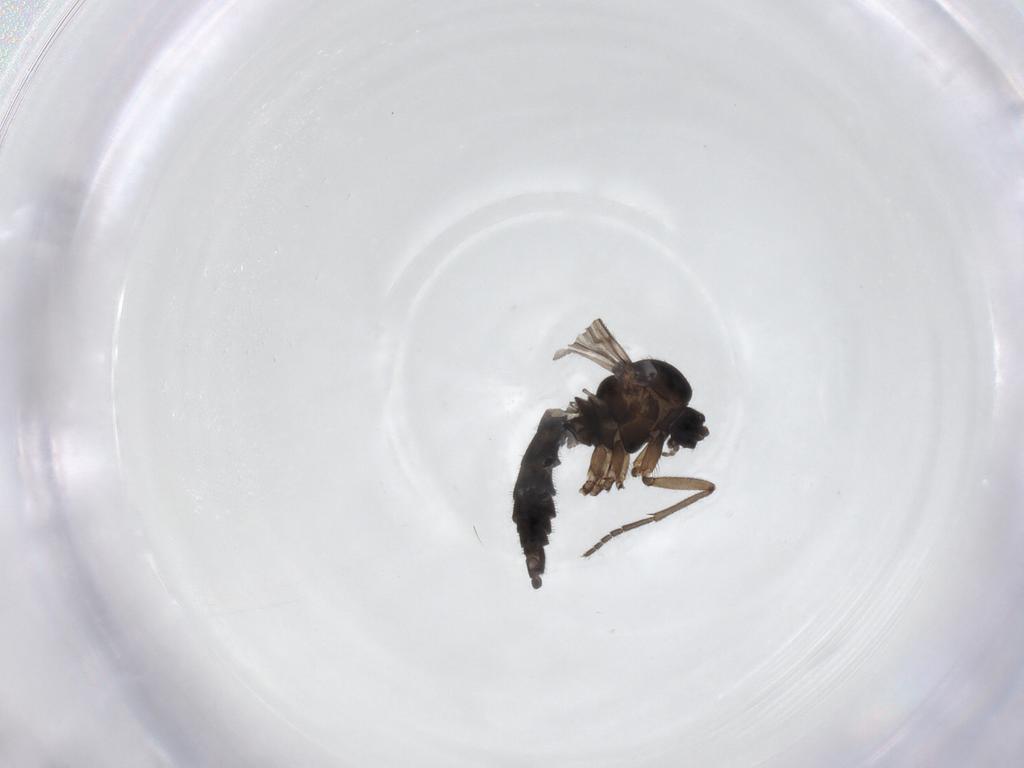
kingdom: Animalia
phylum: Arthropoda
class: Insecta
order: Diptera
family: Sciaridae
